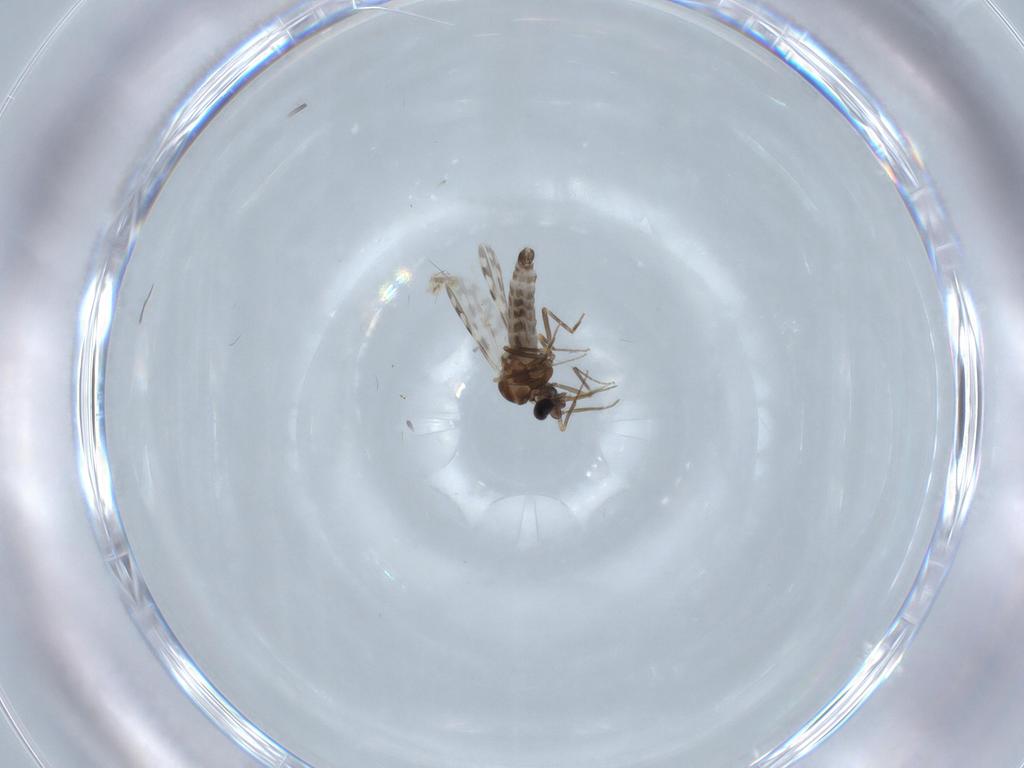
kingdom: Animalia
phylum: Arthropoda
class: Insecta
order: Diptera
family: Ceratopogonidae
